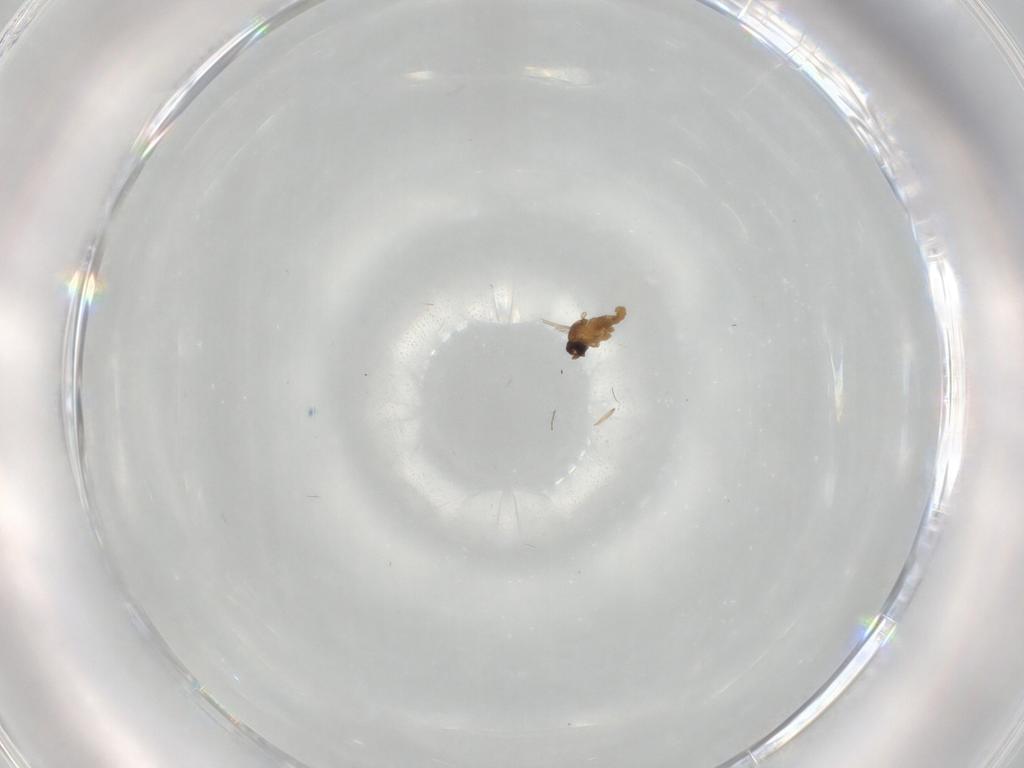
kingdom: Animalia
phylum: Arthropoda
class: Insecta
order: Diptera
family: Cecidomyiidae
